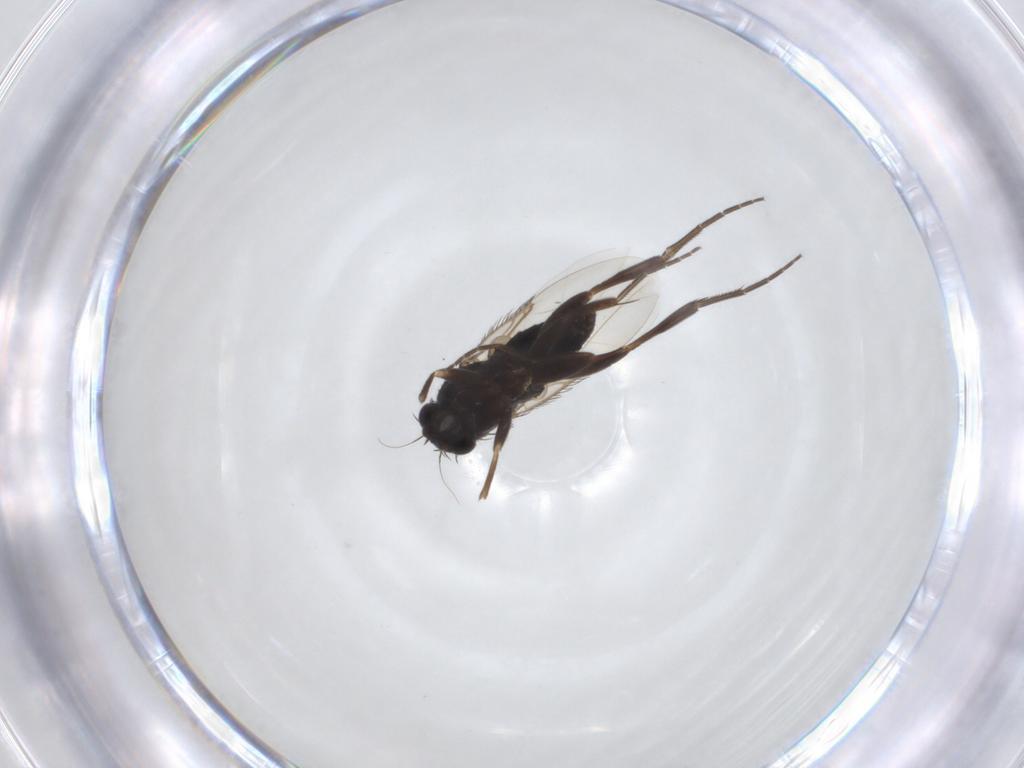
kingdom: Animalia
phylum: Arthropoda
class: Insecta
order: Diptera
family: Phoridae
